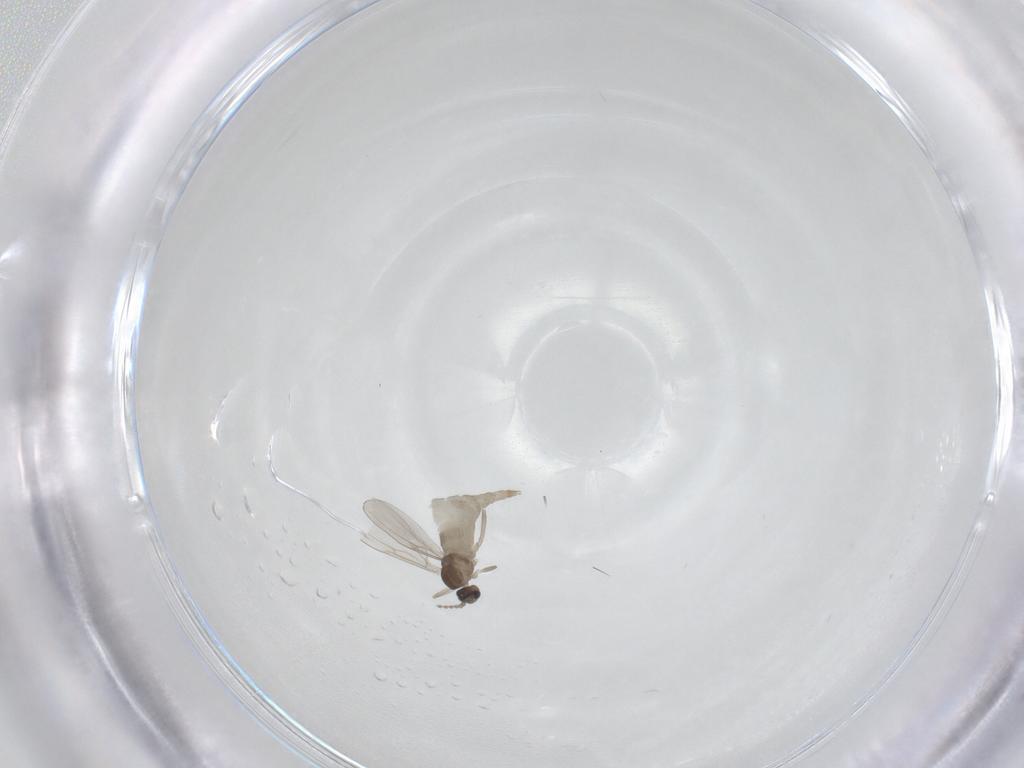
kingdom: Animalia
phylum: Arthropoda
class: Insecta
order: Diptera
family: Cecidomyiidae
